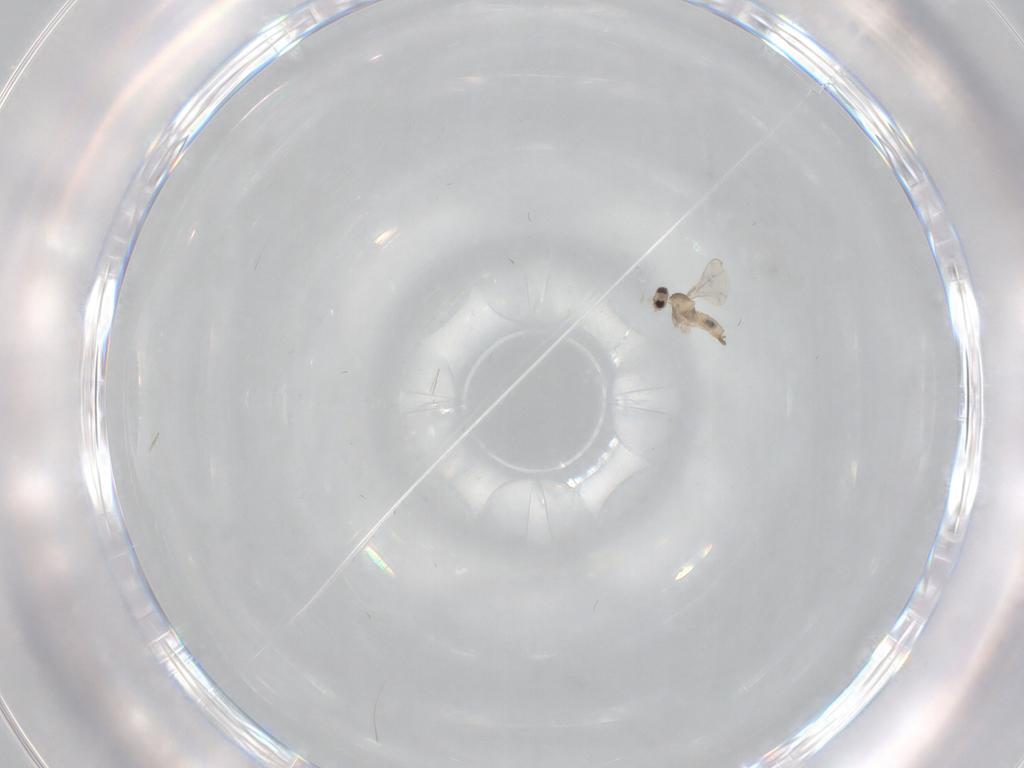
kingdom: Animalia
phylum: Arthropoda
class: Insecta
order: Diptera
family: Cecidomyiidae
